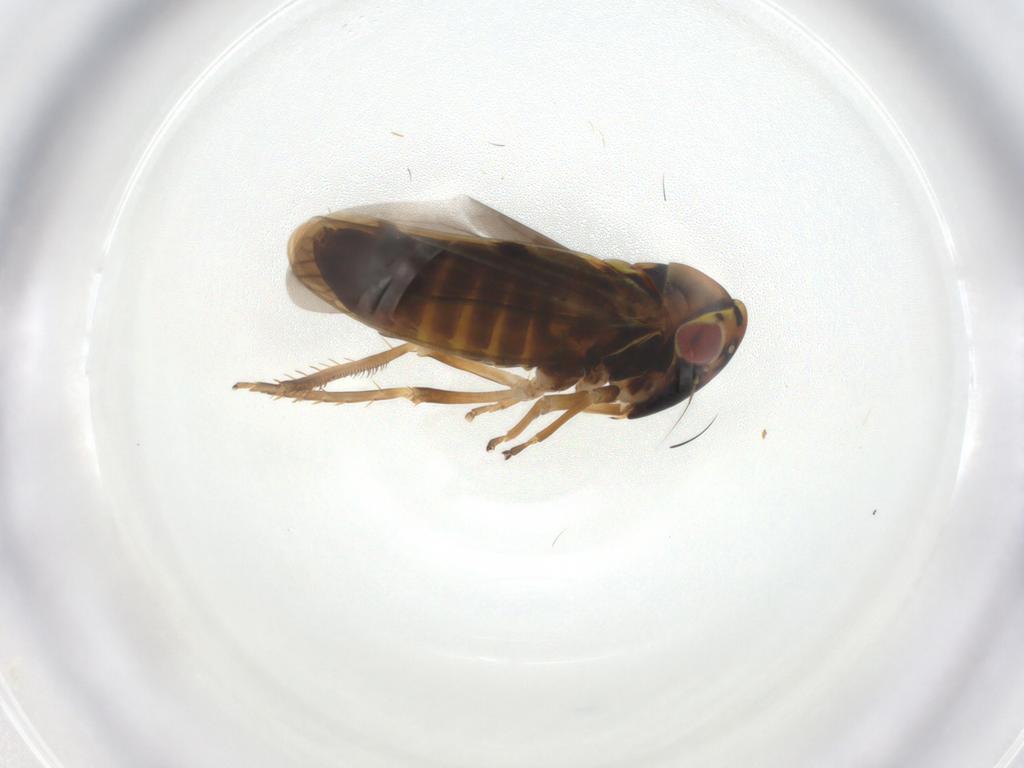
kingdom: Animalia
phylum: Arthropoda
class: Insecta
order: Hemiptera
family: Cicadellidae
